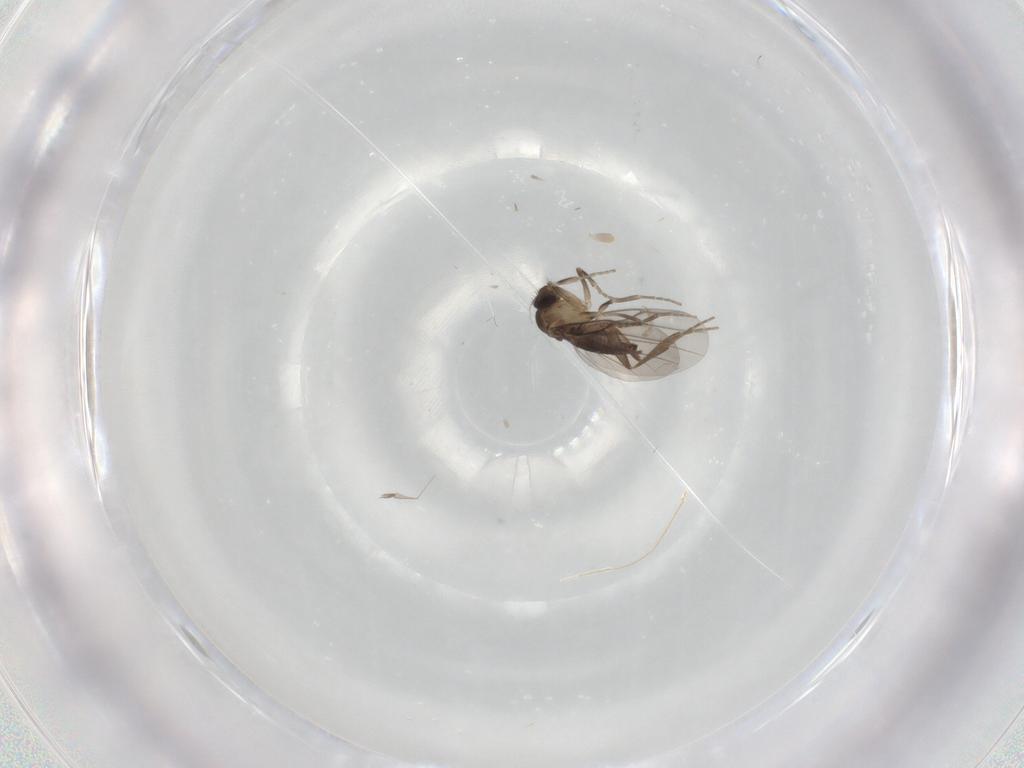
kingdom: Animalia
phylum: Arthropoda
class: Insecta
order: Diptera
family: Cecidomyiidae
